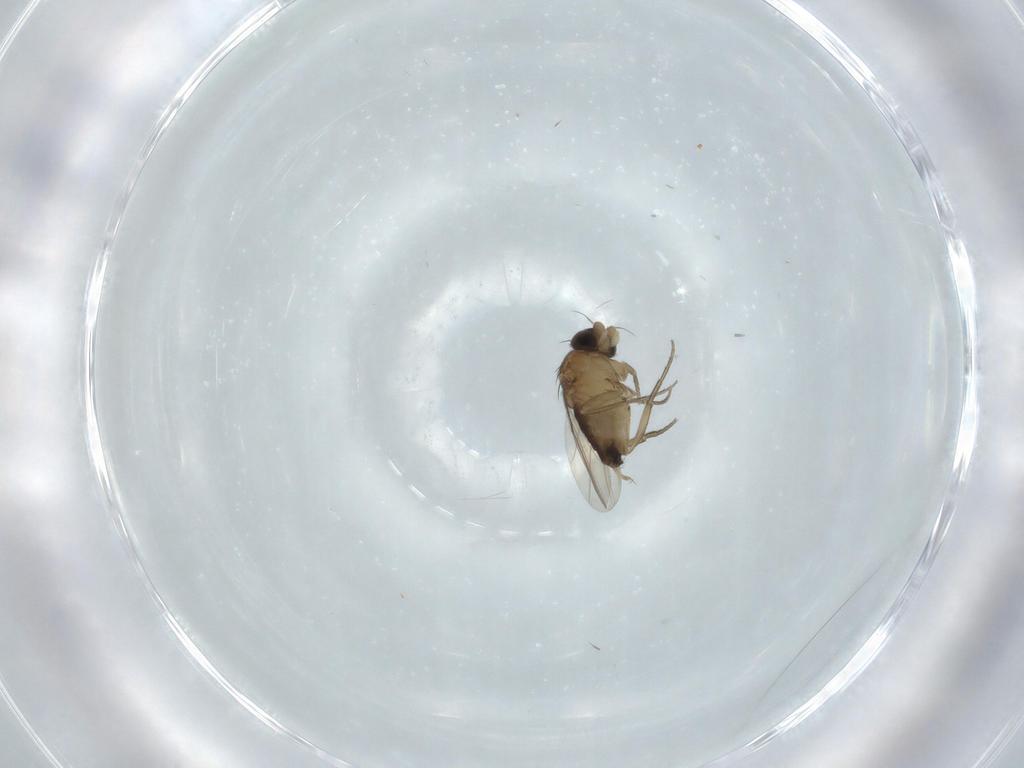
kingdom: Animalia
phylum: Arthropoda
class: Insecta
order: Diptera
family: Phoridae
